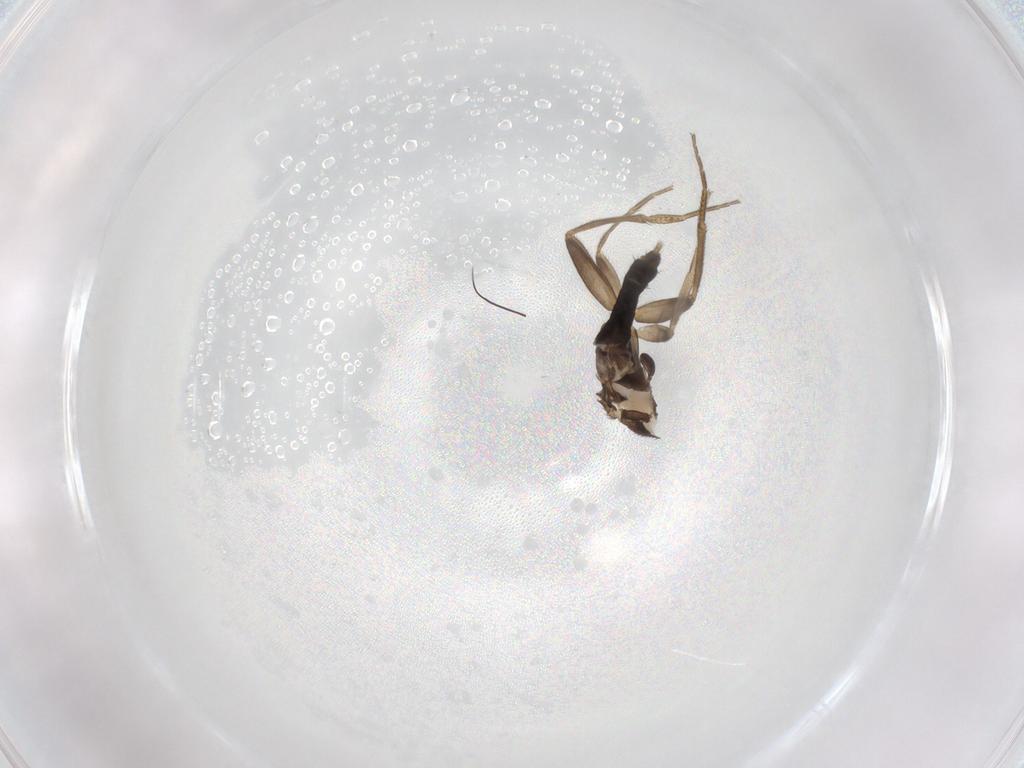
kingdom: Animalia
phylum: Arthropoda
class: Insecta
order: Diptera
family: Phoridae
